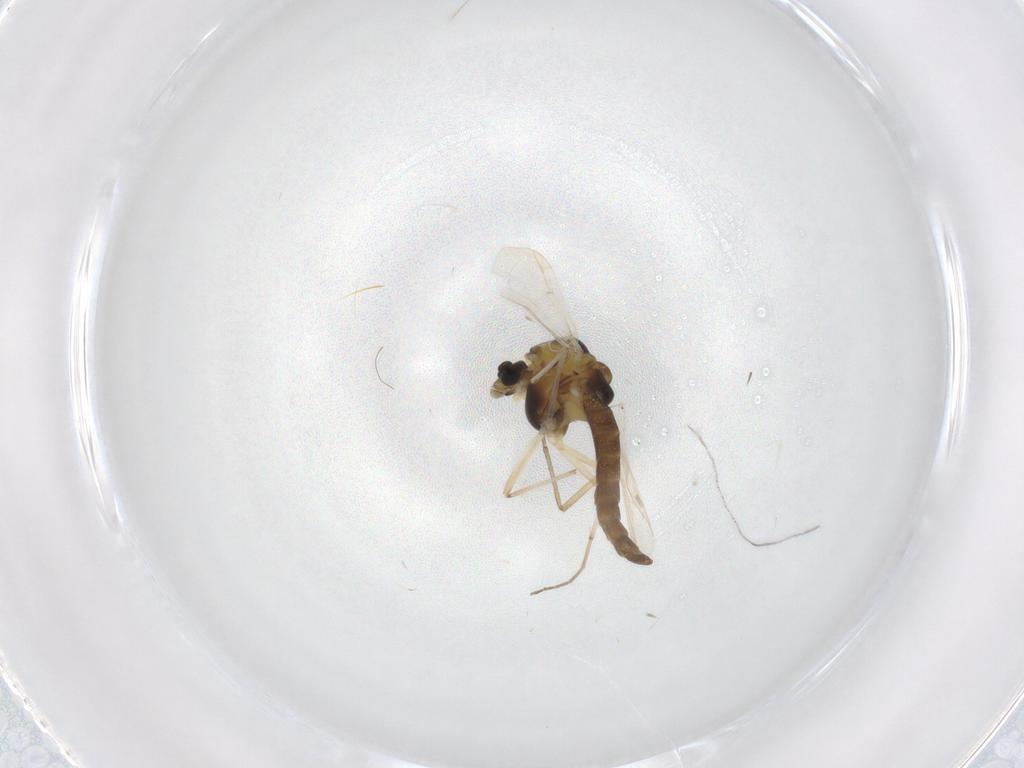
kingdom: Animalia
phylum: Arthropoda
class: Insecta
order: Diptera
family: Chironomidae
